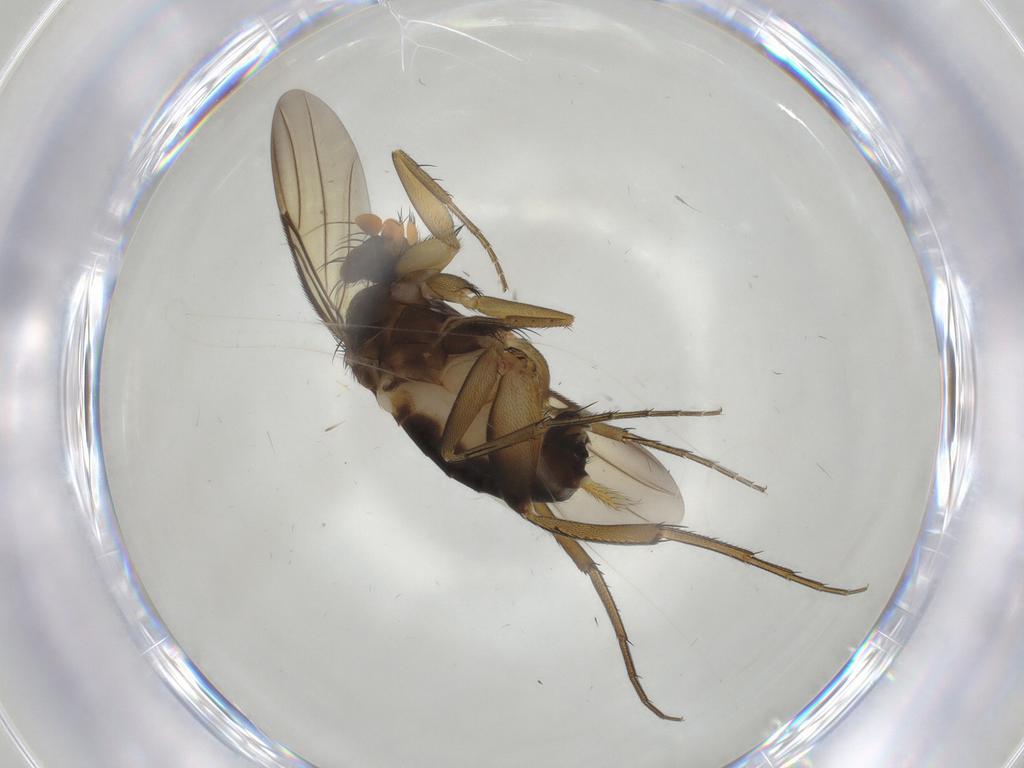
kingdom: Animalia
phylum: Arthropoda
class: Insecta
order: Diptera
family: Phoridae
